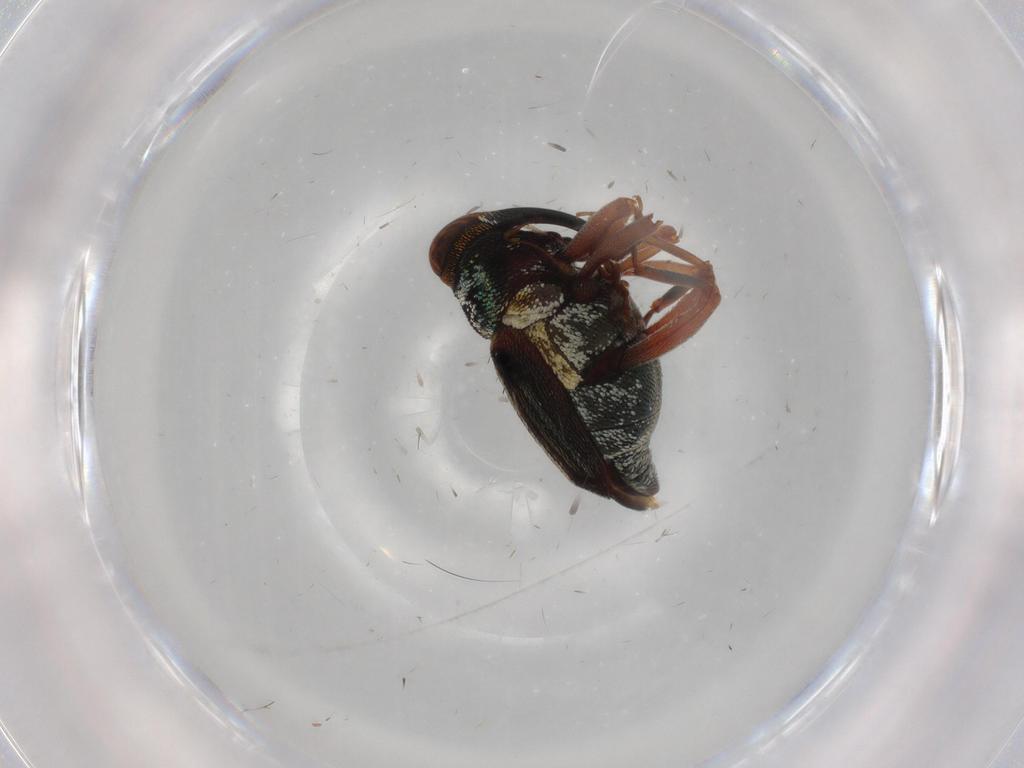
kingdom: Animalia
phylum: Arthropoda
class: Insecta
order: Coleoptera
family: Curculionidae
